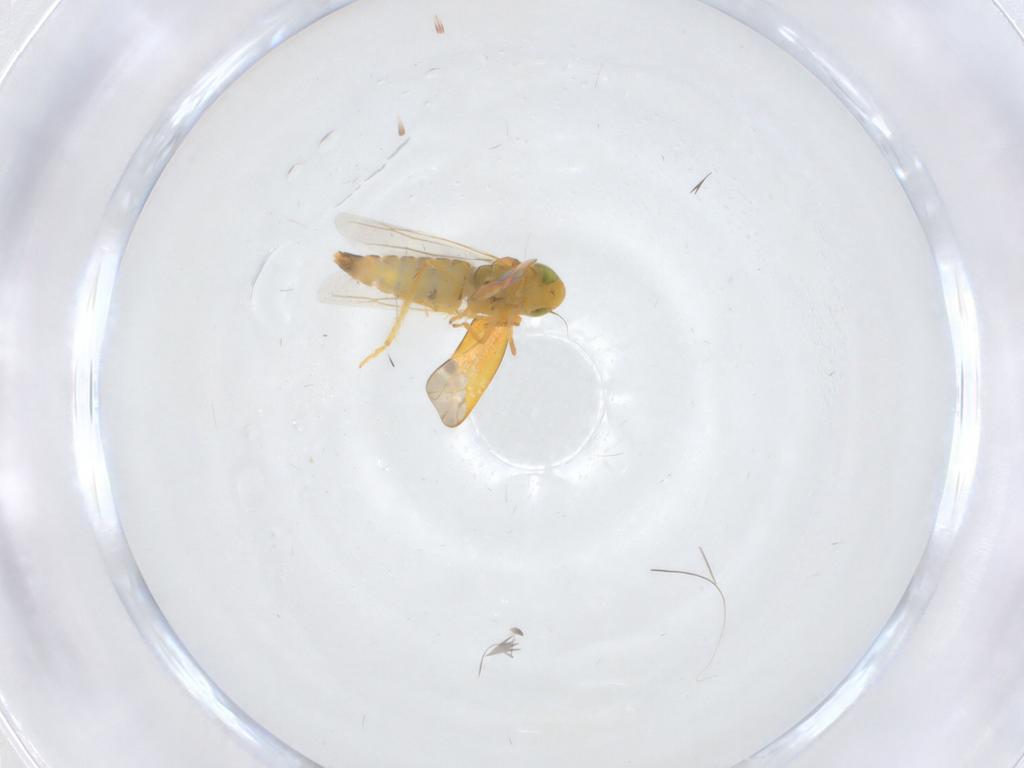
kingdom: Animalia
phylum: Arthropoda
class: Insecta
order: Hemiptera
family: Cicadellidae
